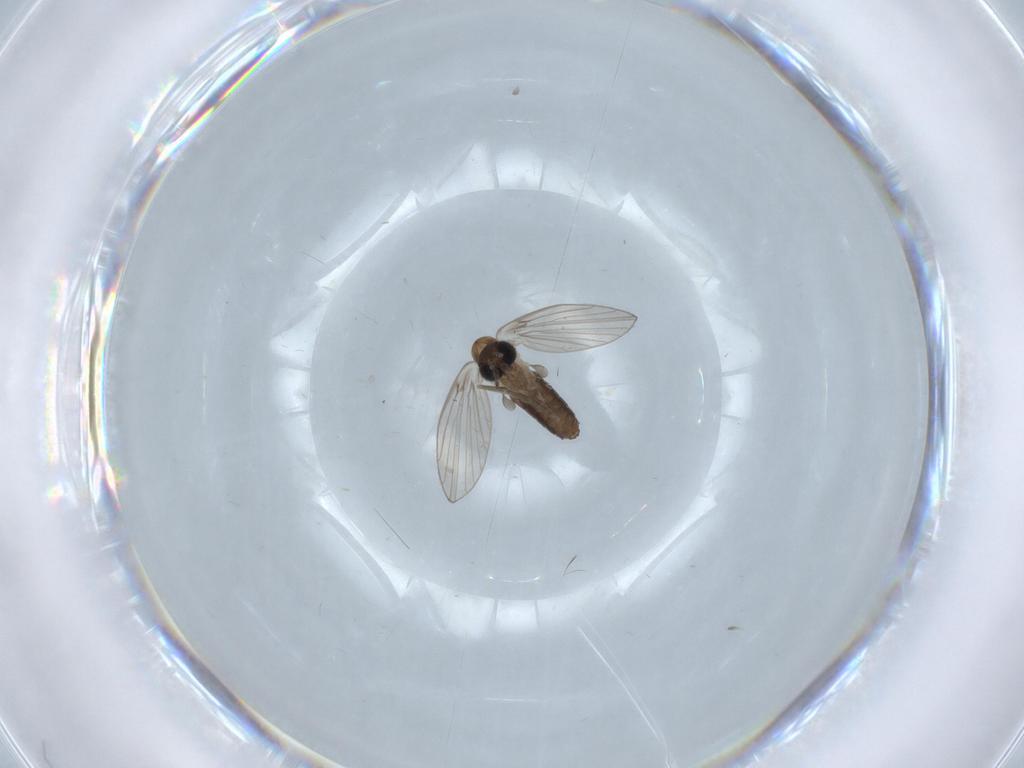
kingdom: Animalia
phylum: Arthropoda
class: Insecta
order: Diptera
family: Psychodidae
